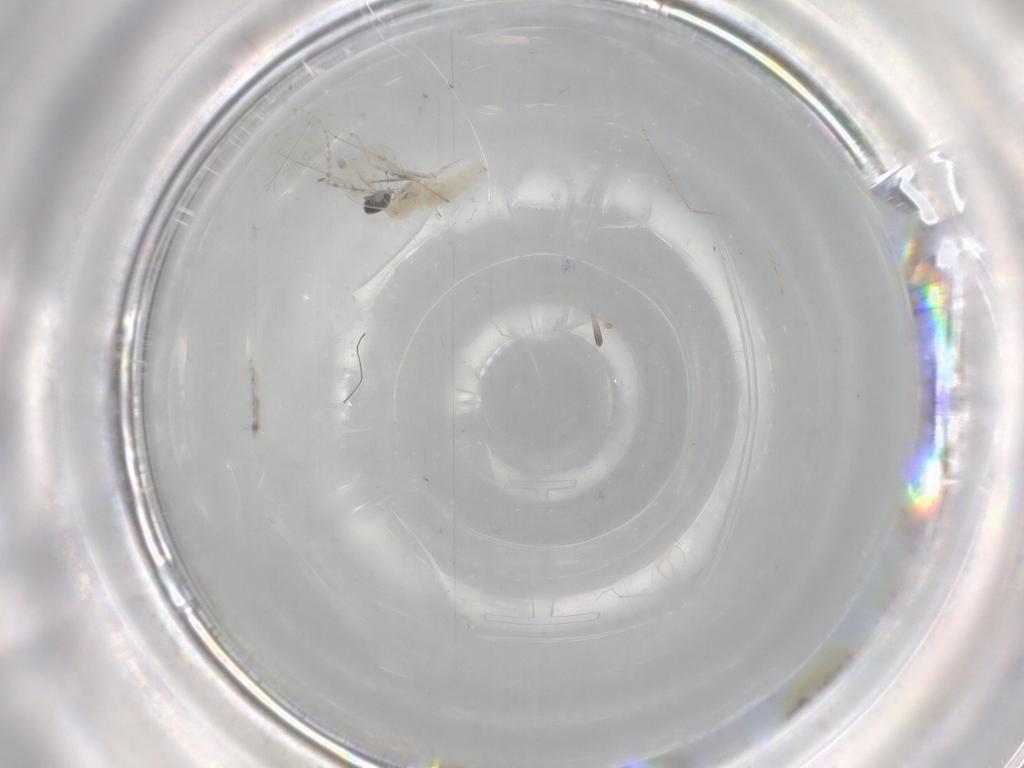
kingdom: Animalia
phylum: Arthropoda
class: Insecta
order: Diptera
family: Cecidomyiidae
